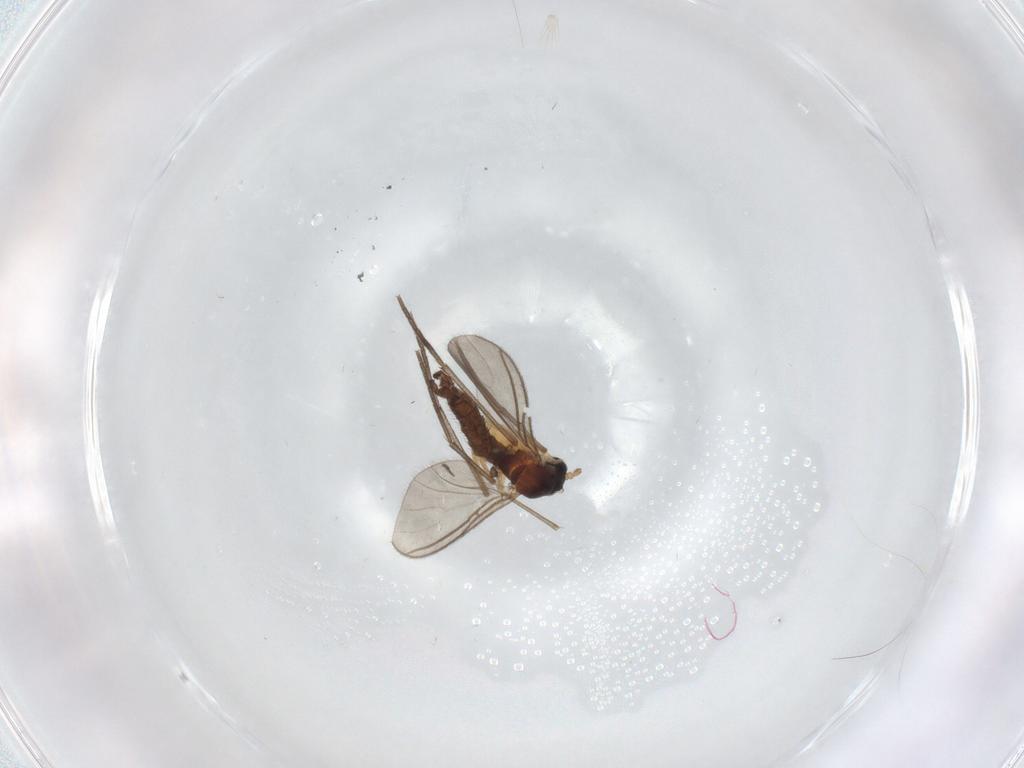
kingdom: Animalia
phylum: Arthropoda
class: Insecta
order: Diptera
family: Sciaridae
